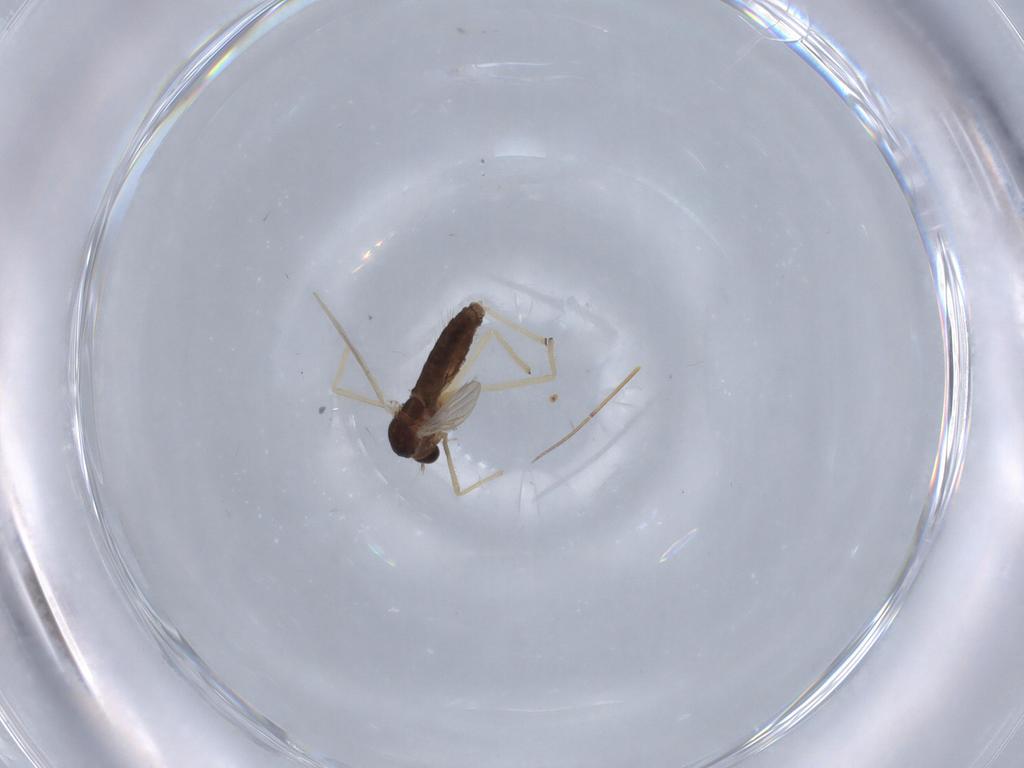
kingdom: Animalia
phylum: Arthropoda
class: Insecta
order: Diptera
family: Chironomidae
